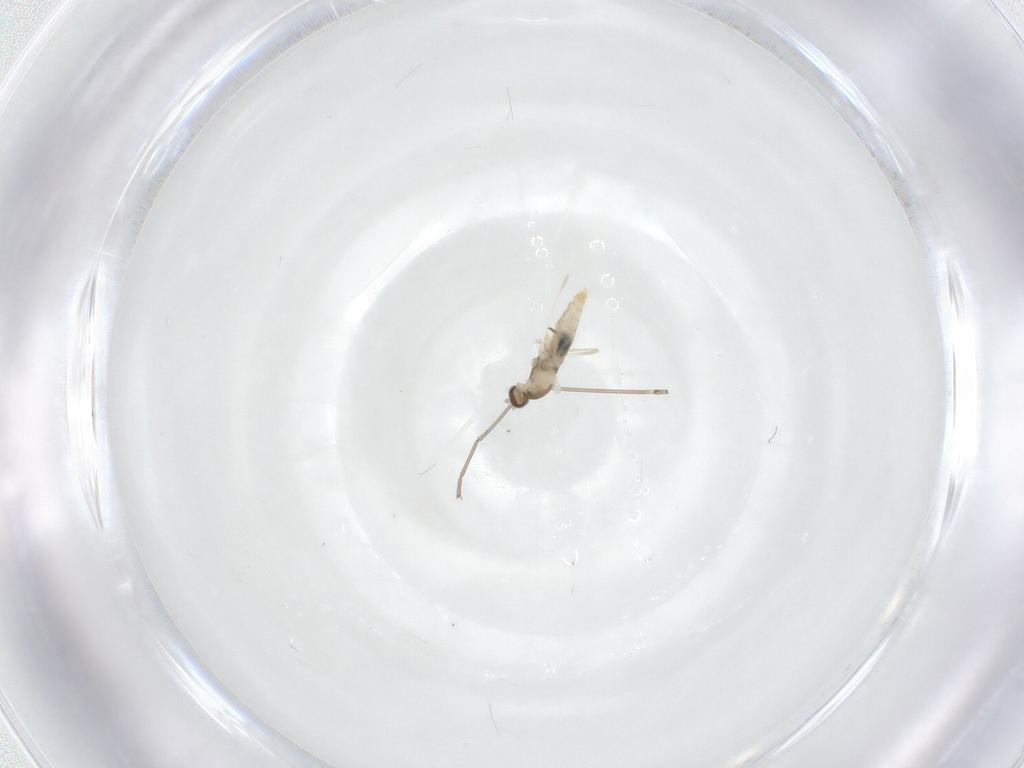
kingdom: Animalia
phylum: Arthropoda
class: Insecta
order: Diptera
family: Cecidomyiidae
